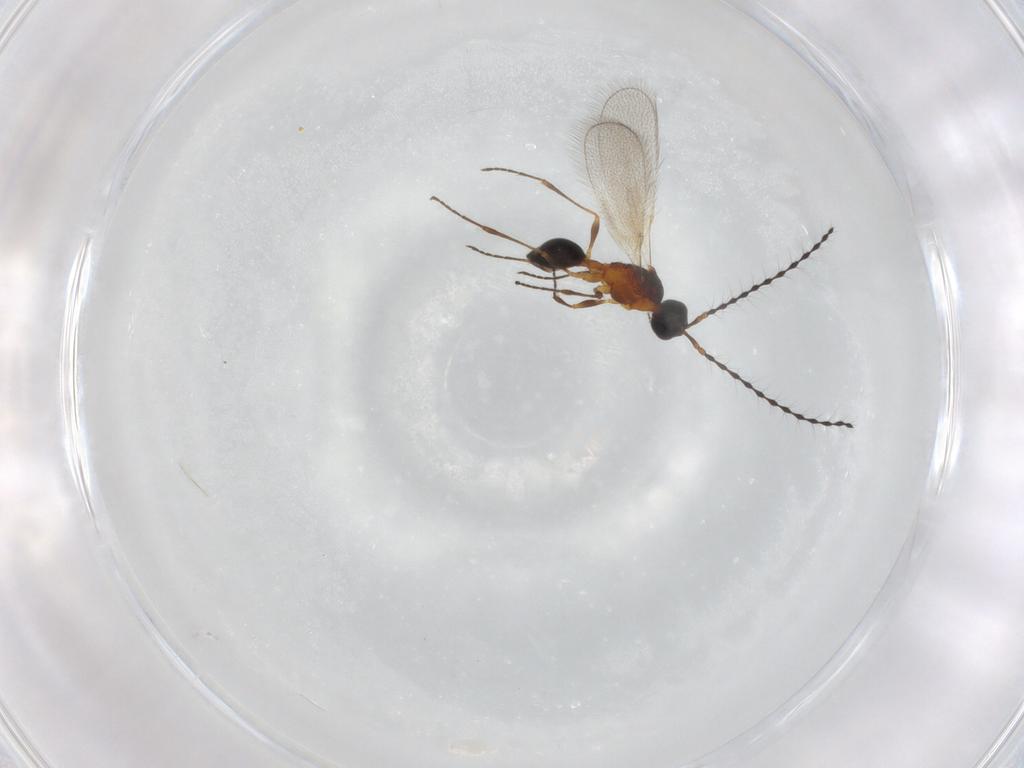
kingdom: Animalia
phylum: Arthropoda
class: Insecta
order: Hymenoptera
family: Diapriidae
